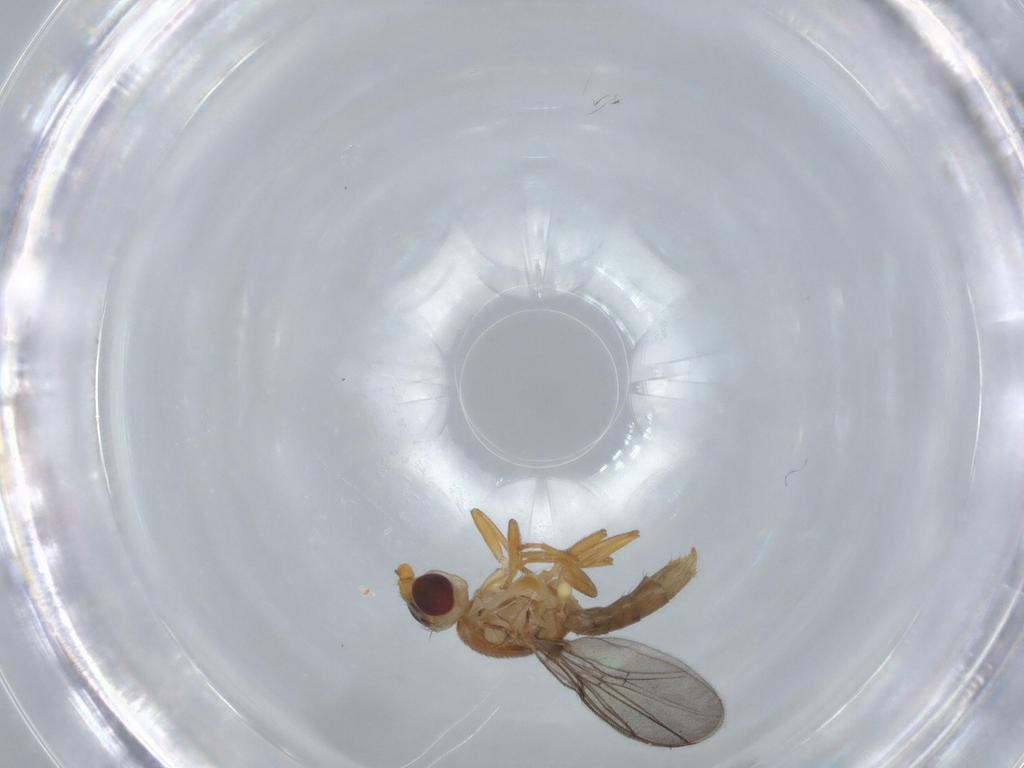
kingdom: Animalia
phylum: Arthropoda
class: Insecta
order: Diptera
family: Chloropidae
